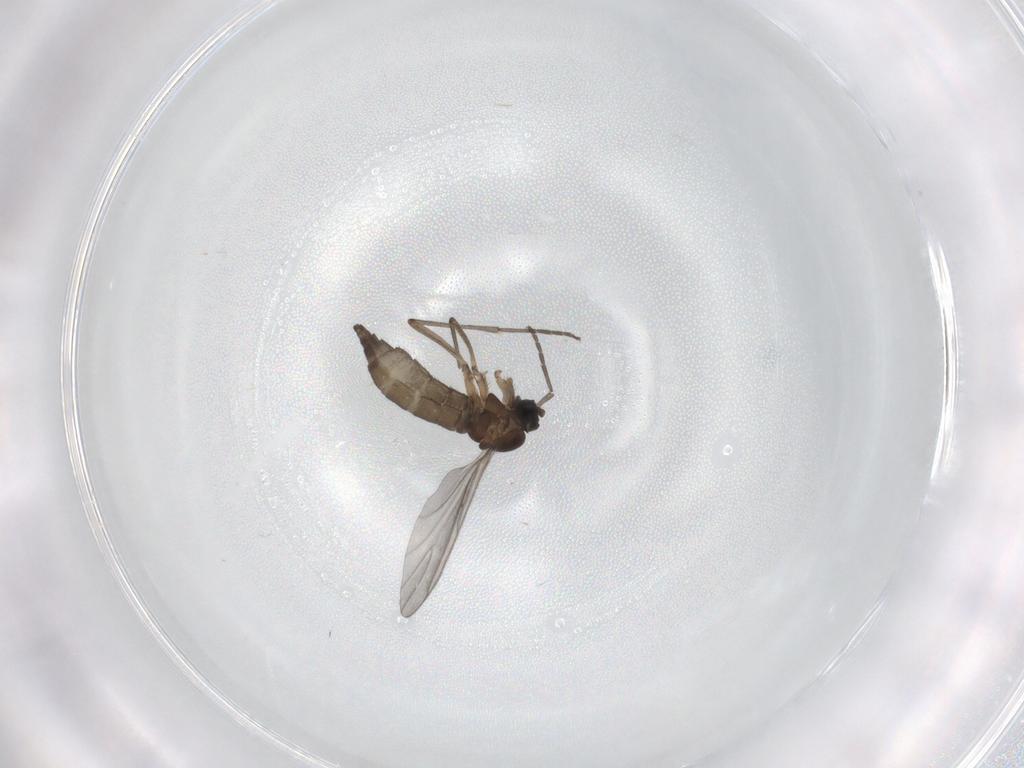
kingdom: Animalia
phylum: Arthropoda
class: Insecta
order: Diptera
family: Sciaridae
